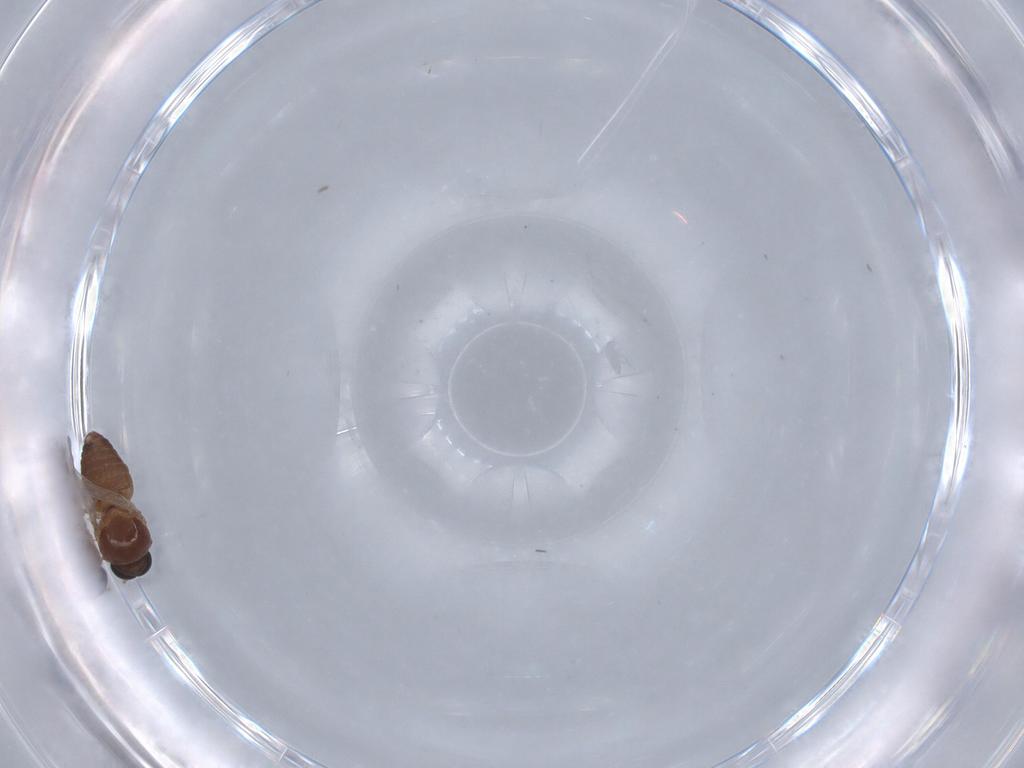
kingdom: Animalia
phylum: Arthropoda
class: Insecta
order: Diptera
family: Ceratopogonidae
